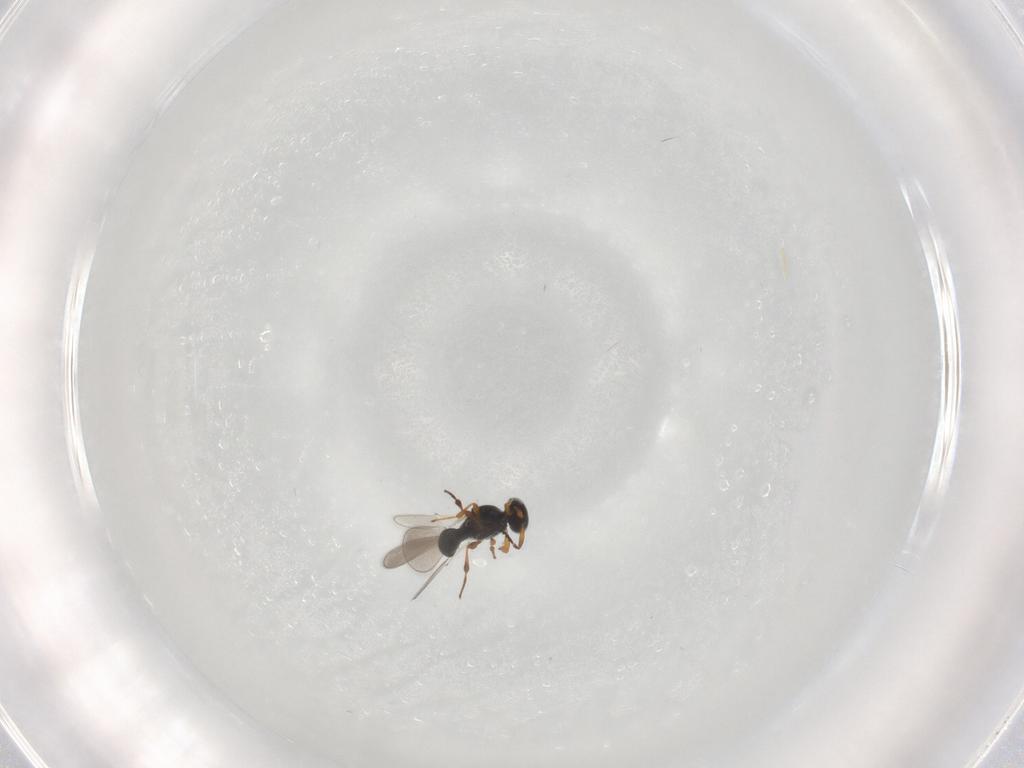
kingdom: Animalia
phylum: Arthropoda
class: Insecta
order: Hymenoptera
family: Platygastridae
